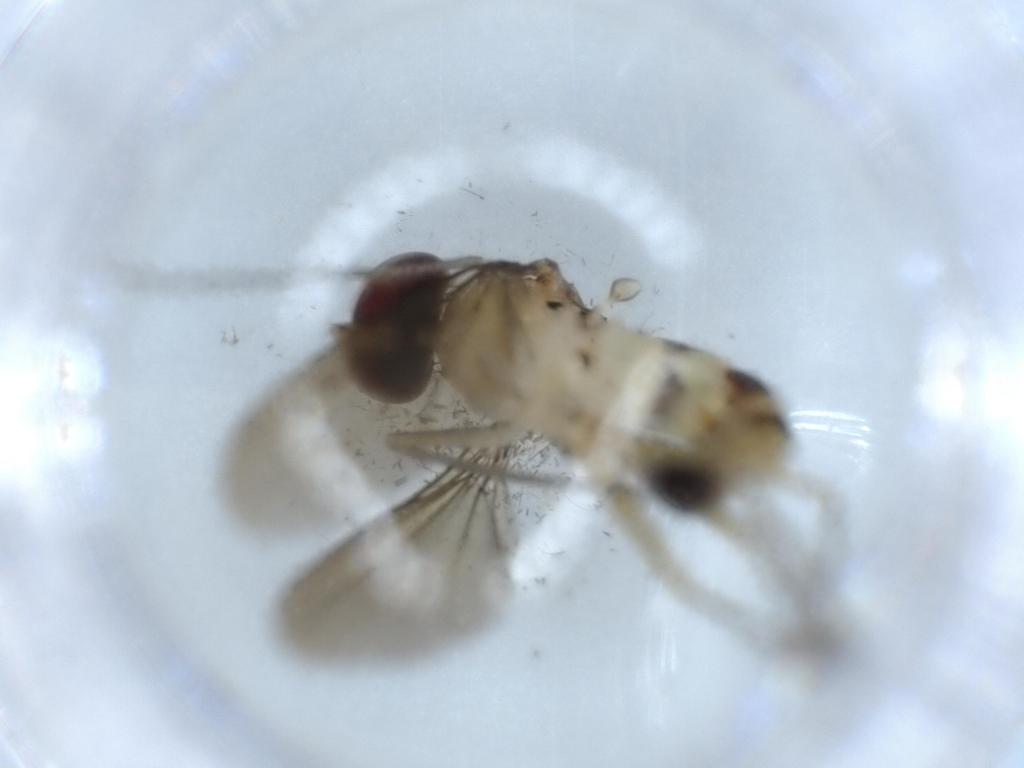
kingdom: Animalia
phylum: Arthropoda
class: Insecta
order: Diptera
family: Dolichopodidae
